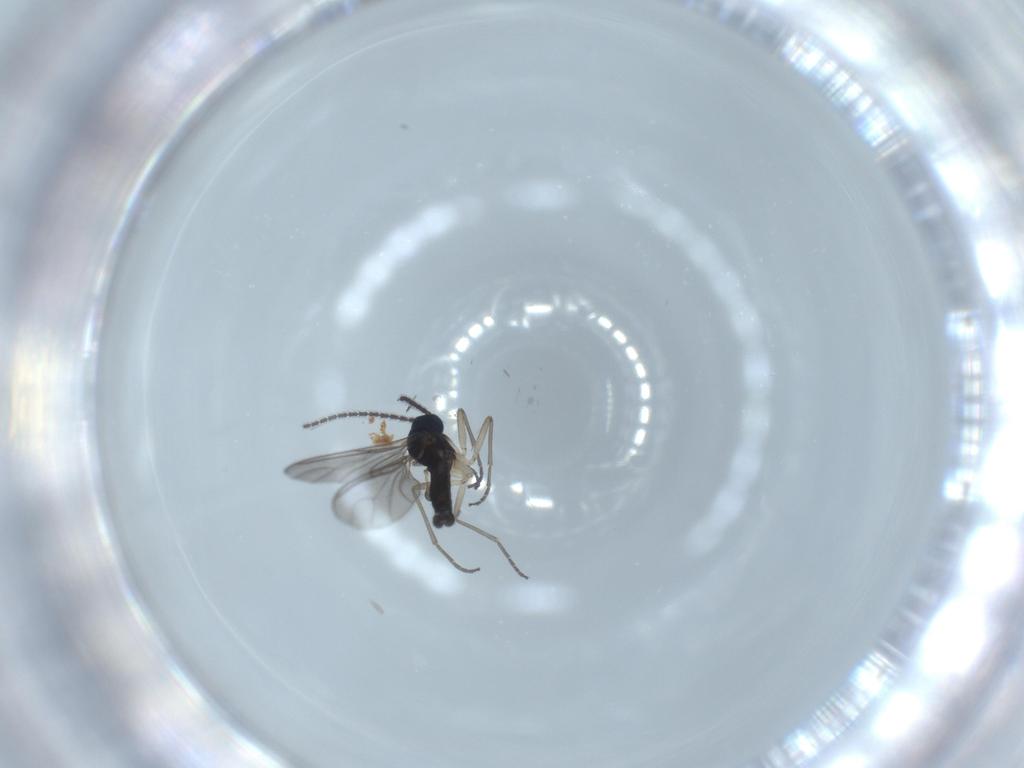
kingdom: Animalia
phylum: Arthropoda
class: Insecta
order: Diptera
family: Sciaridae
